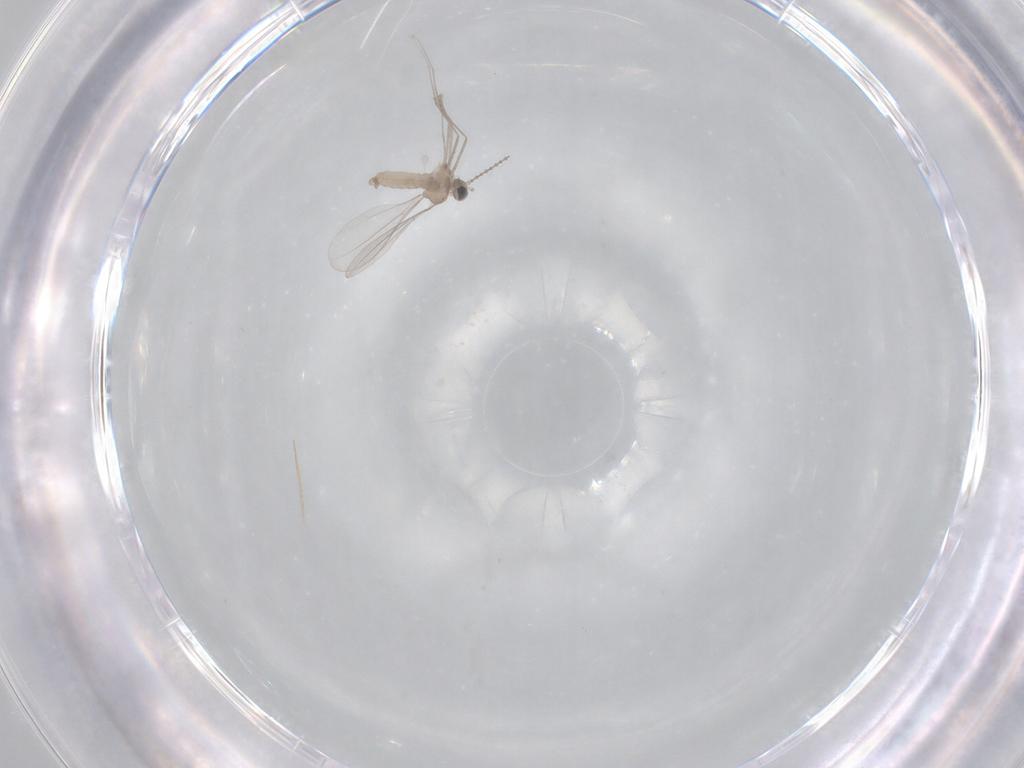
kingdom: Animalia
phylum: Arthropoda
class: Insecta
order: Diptera
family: Cecidomyiidae
